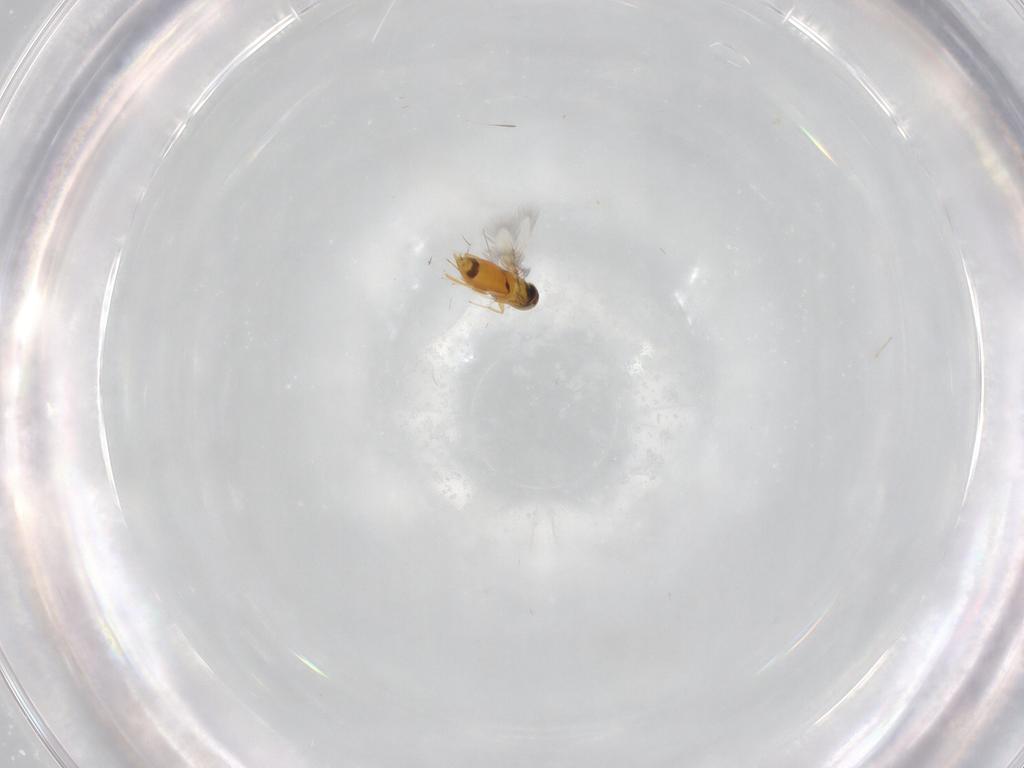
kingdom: Animalia
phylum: Arthropoda
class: Insecta
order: Hymenoptera
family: Signiphoridae
